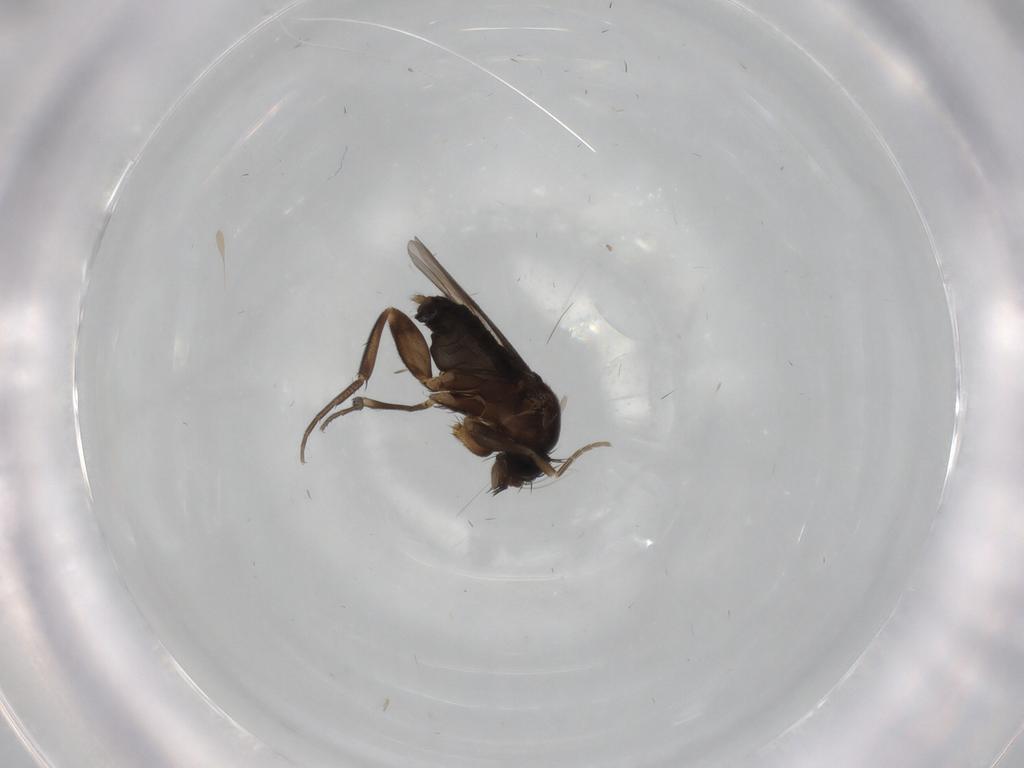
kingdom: Animalia
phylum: Arthropoda
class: Insecta
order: Diptera
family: Phoridae
